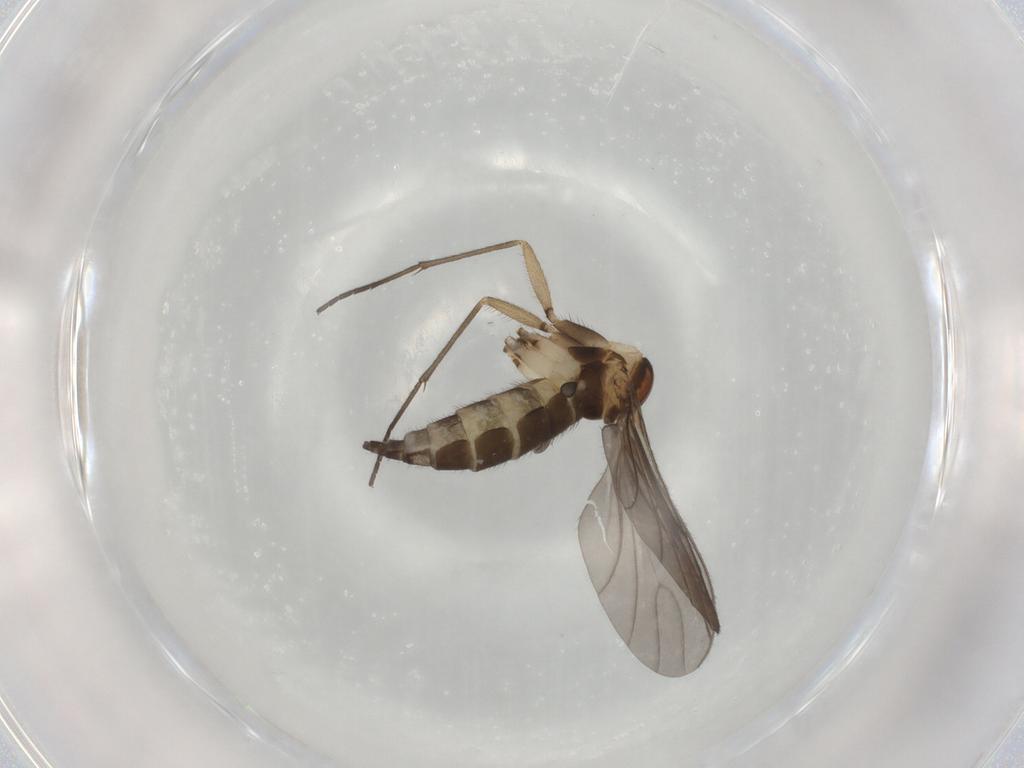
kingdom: Animalia
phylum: Arthropoda
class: Insecta
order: Diptera
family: Sciaridae
